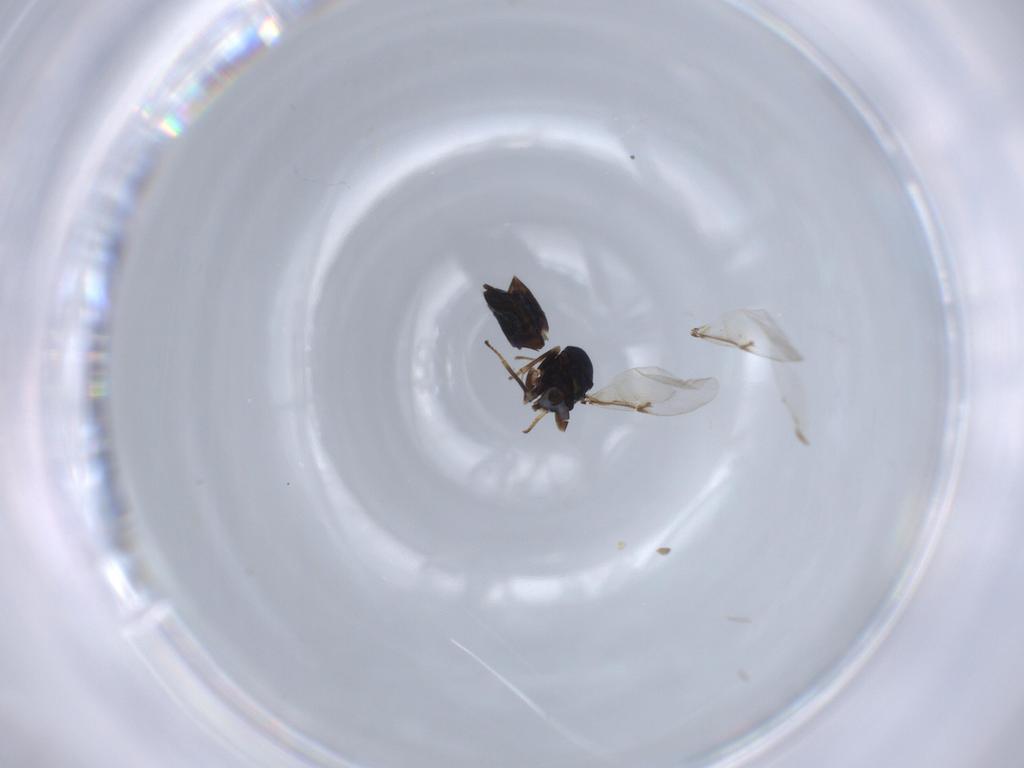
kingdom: Animalia
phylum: Arthropoda
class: Insecta
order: Hymenoptera
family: Encyrtidae
